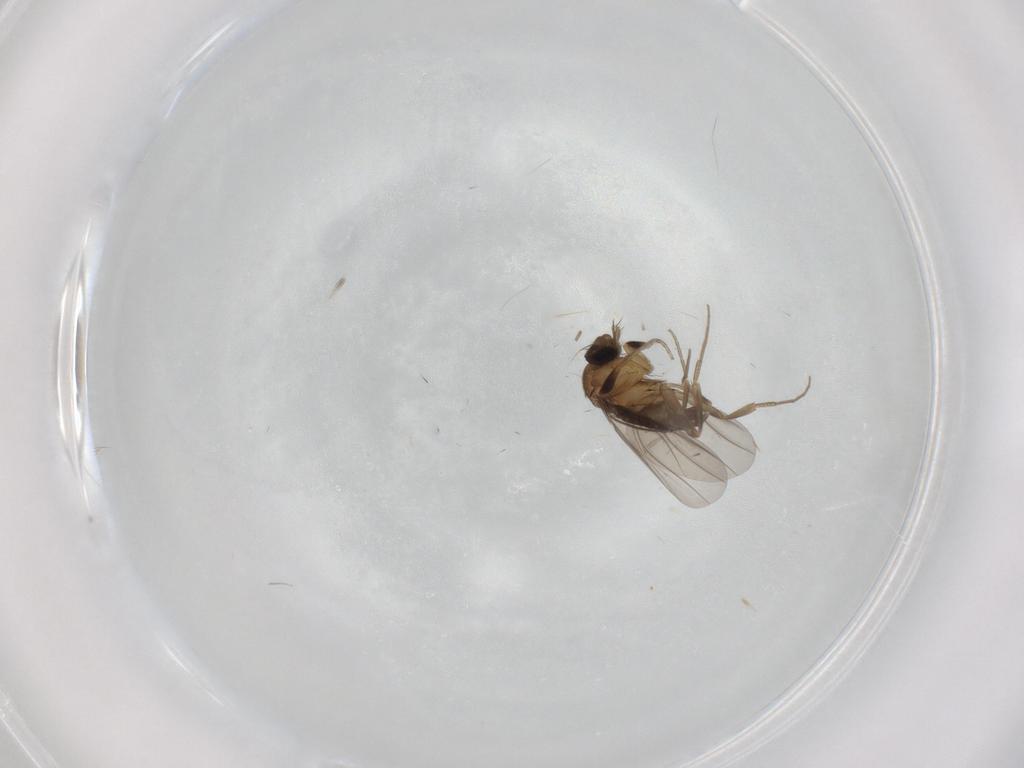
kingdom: Animalia
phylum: Arthropoda
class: Insecta
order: Diptera
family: Phoridae
